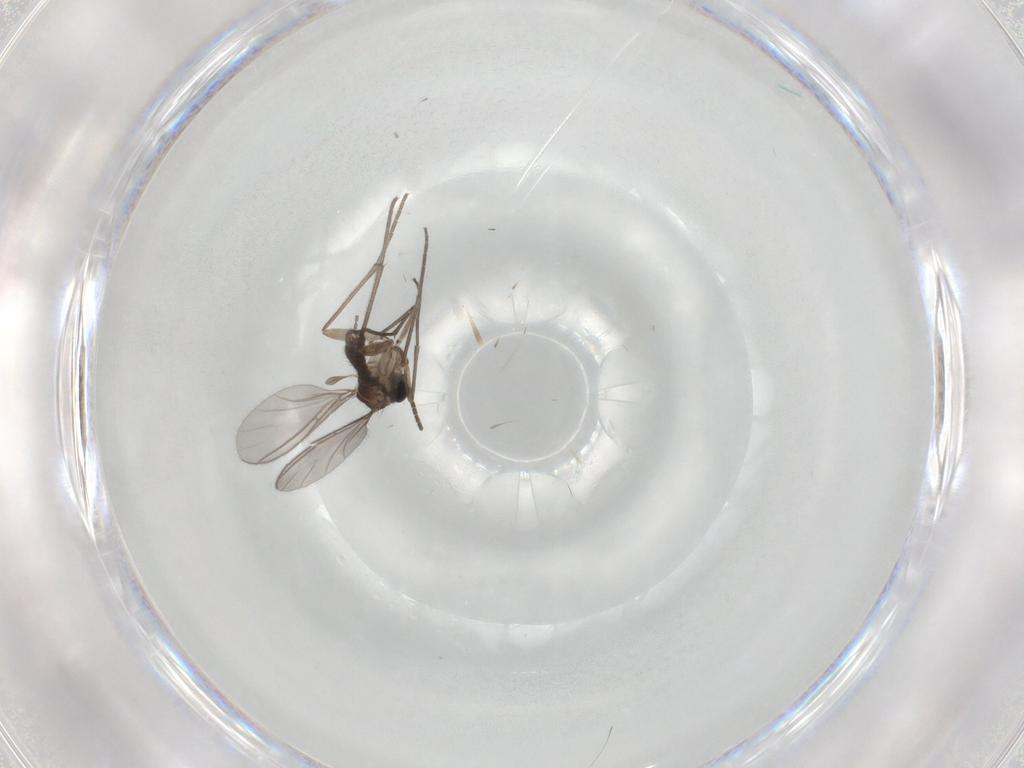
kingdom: Animalia
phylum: Arthropoda
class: Insecta
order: Diptera
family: Sciaridae
